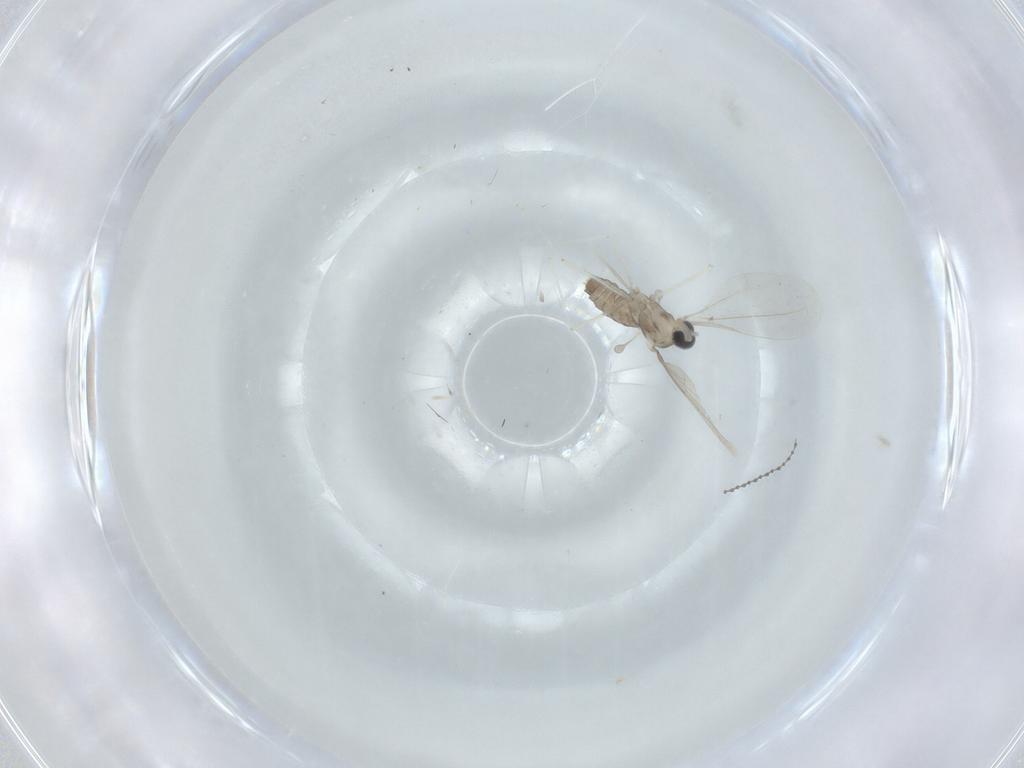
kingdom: Animalia
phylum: Arthropoda
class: Insecta
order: Diptera
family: Cecidomyiidae
